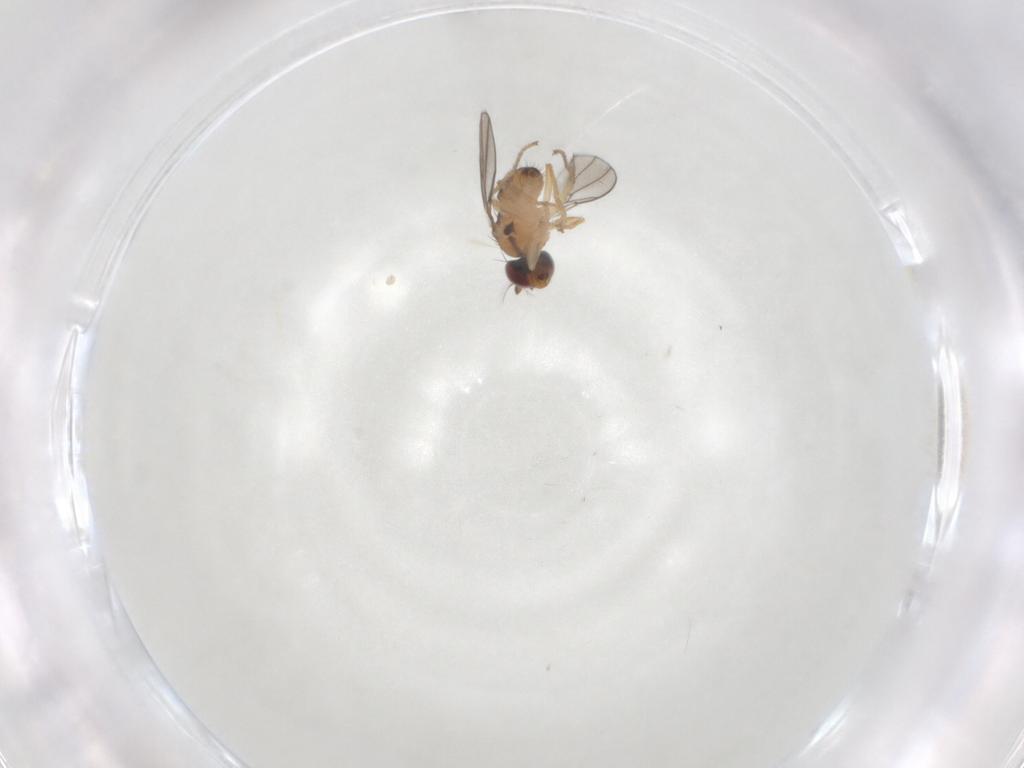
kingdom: Animalia
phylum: Arthropoda
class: Insecta
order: Diptera
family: Ephydridae
